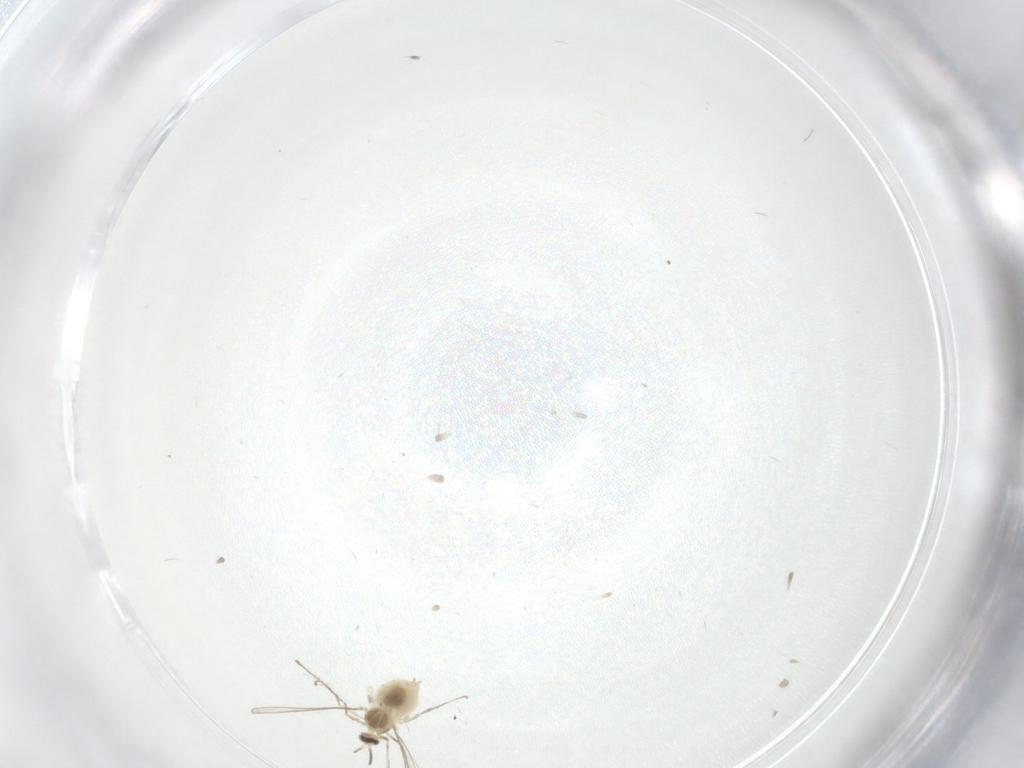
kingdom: Animalia
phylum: Arthropoda
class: Insecta
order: Diptera
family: Cecidomyiidae
